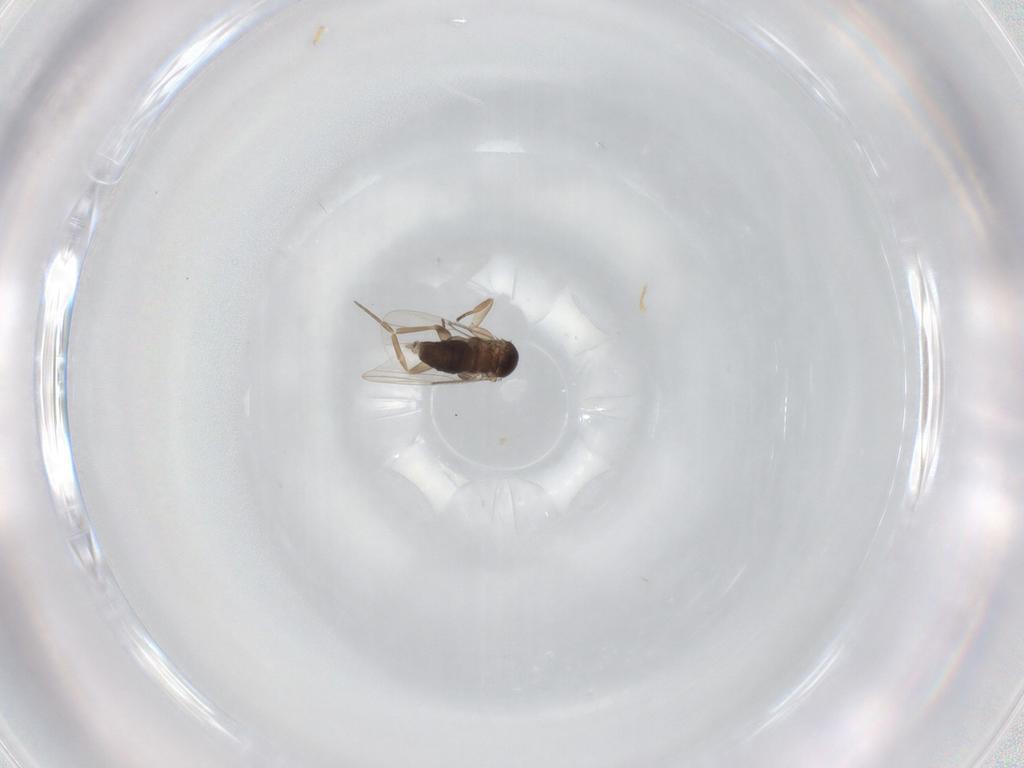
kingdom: Animalia
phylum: Arthropoda
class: Insecta
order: Diptera
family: Phoridae
